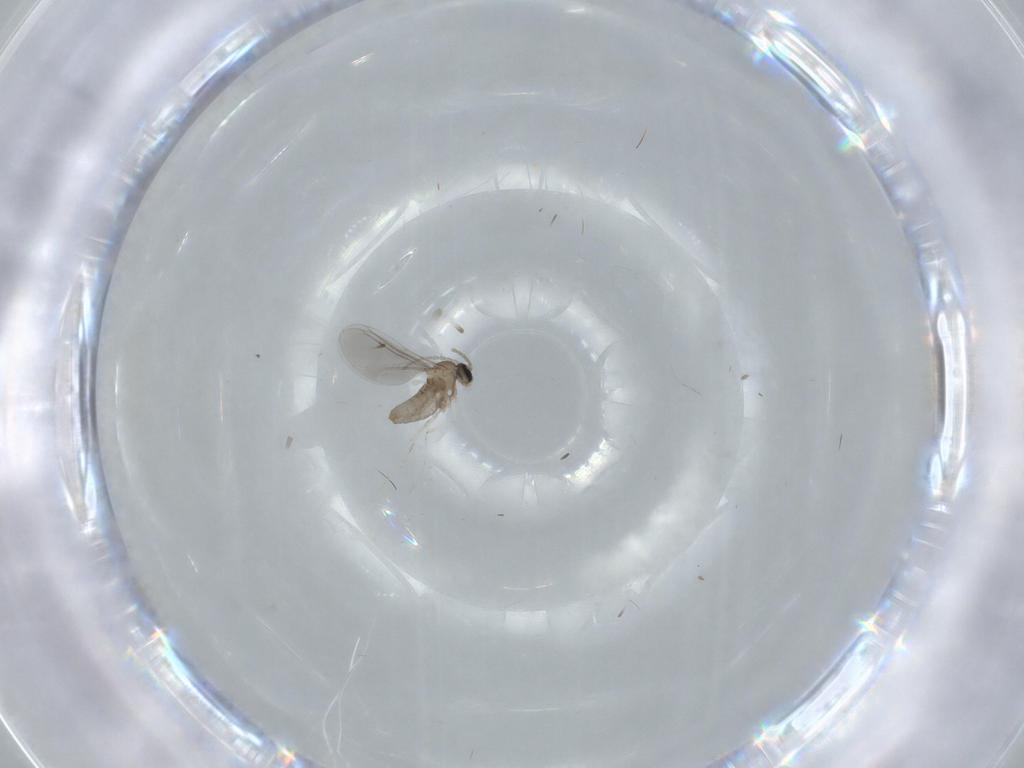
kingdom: Animalia
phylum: Arthropoda
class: Insecta
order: Diptera
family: Cecidomyiidae
